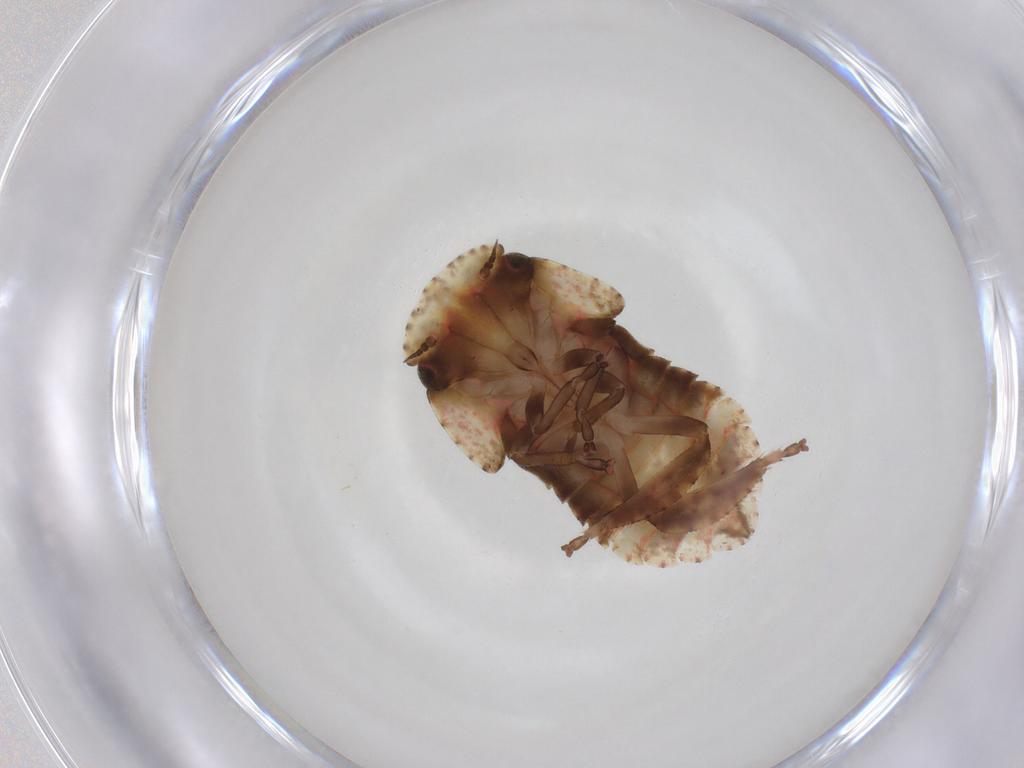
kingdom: Animalia
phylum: Arthropoda
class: Insecta
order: Hemiptera
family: Cicadellidae
